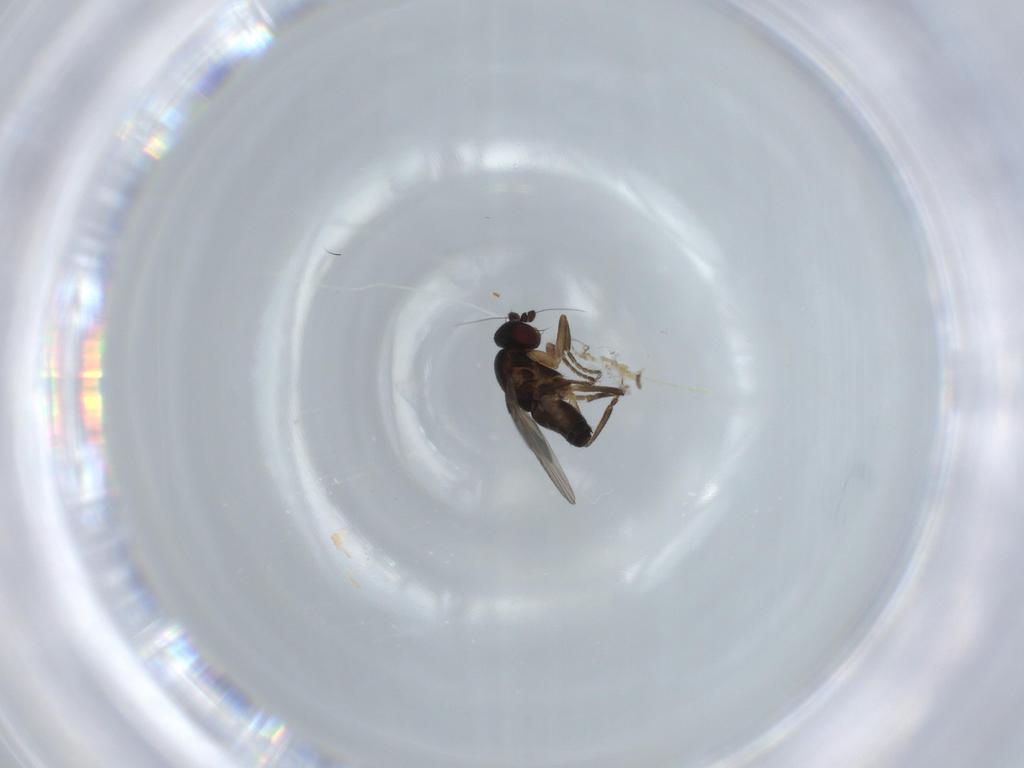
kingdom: Animalia
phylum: Arthropoda
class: Insecta
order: Diptera
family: Sphaeroceridae
